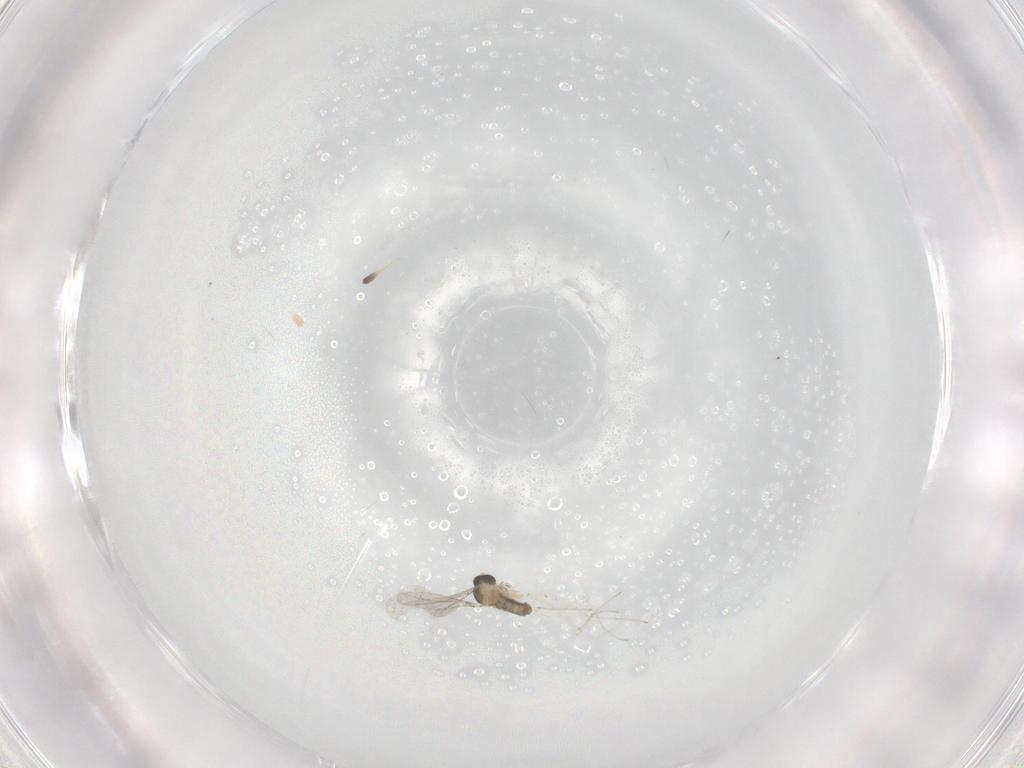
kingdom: Animalia
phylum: Arthropoda
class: Insecta
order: Diptera
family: Cecidomyiidae
